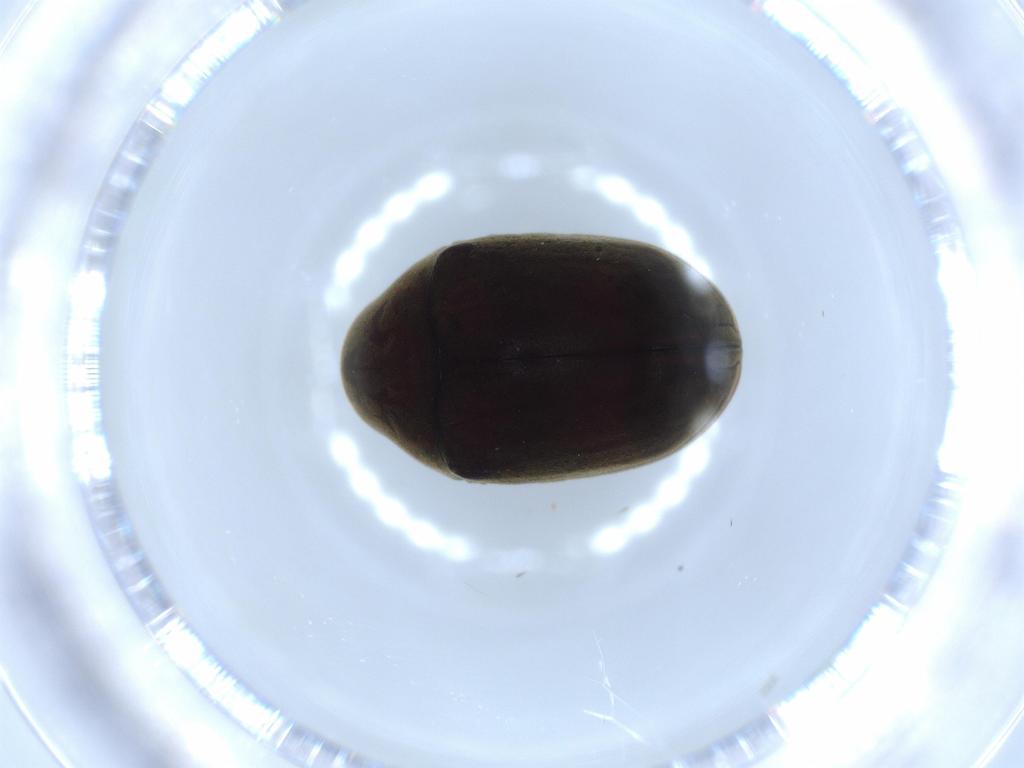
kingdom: Animalia
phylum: Arthropoda
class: Insecta
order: Coleoptera
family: Ptinidae
